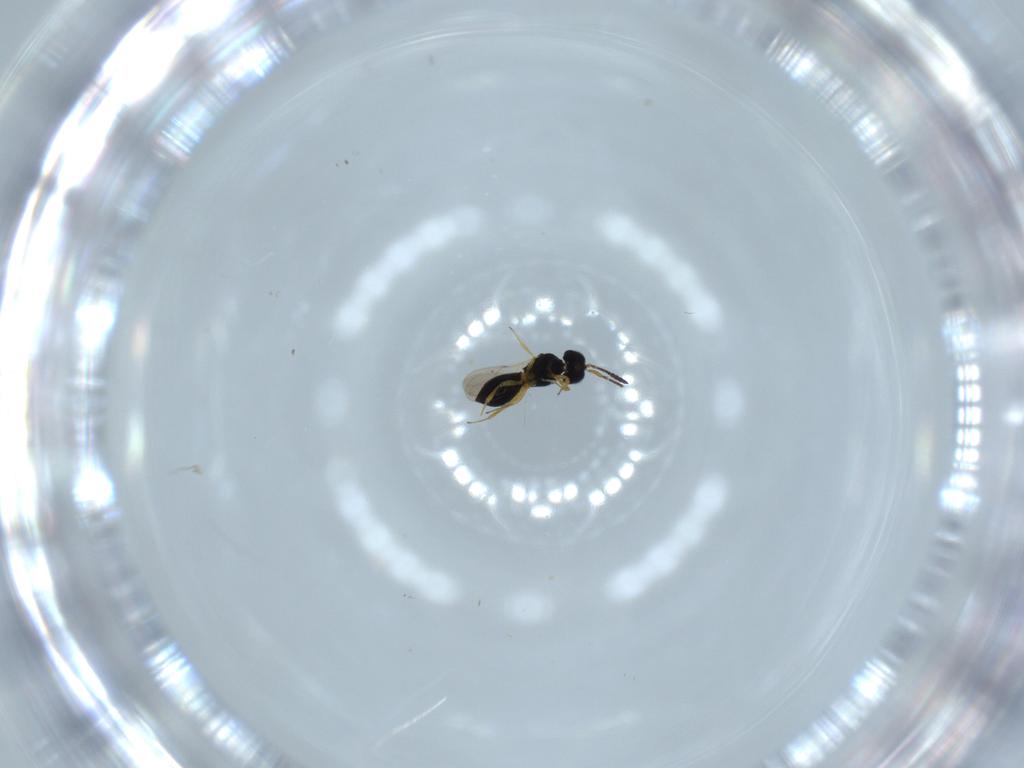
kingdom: Animalia
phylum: Arthropoda
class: Insecta
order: Hymenoptera
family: Scelionidae
